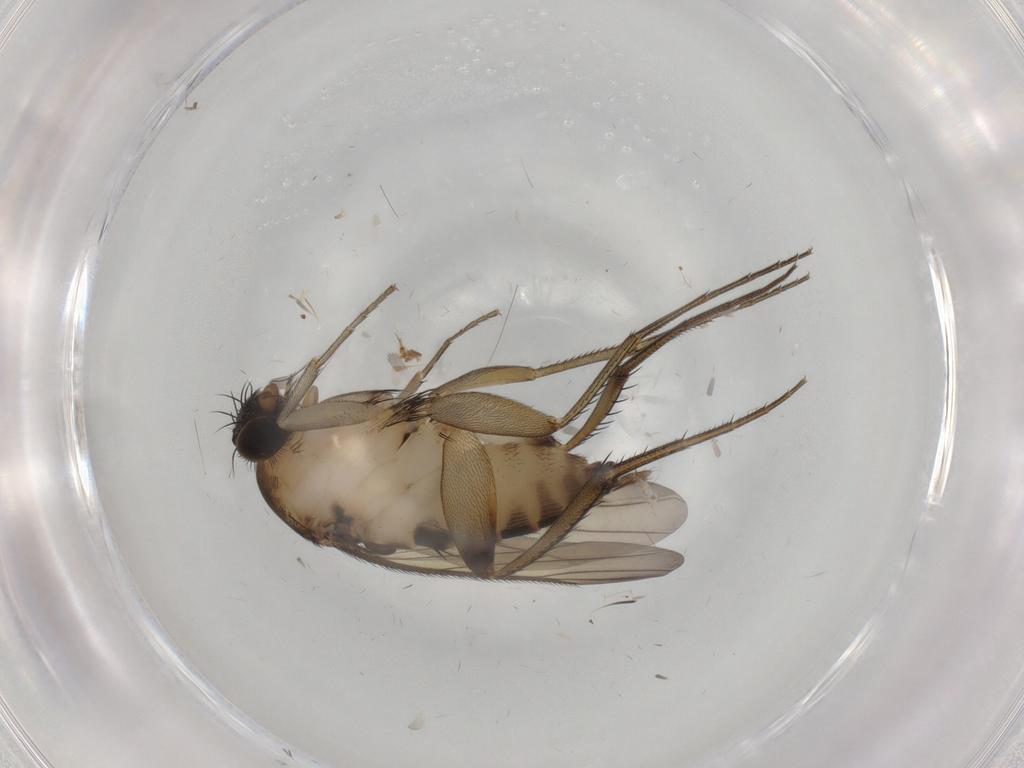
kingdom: Animalia
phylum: Arthropoda
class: Insecta
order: Diptera
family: Phoridae
